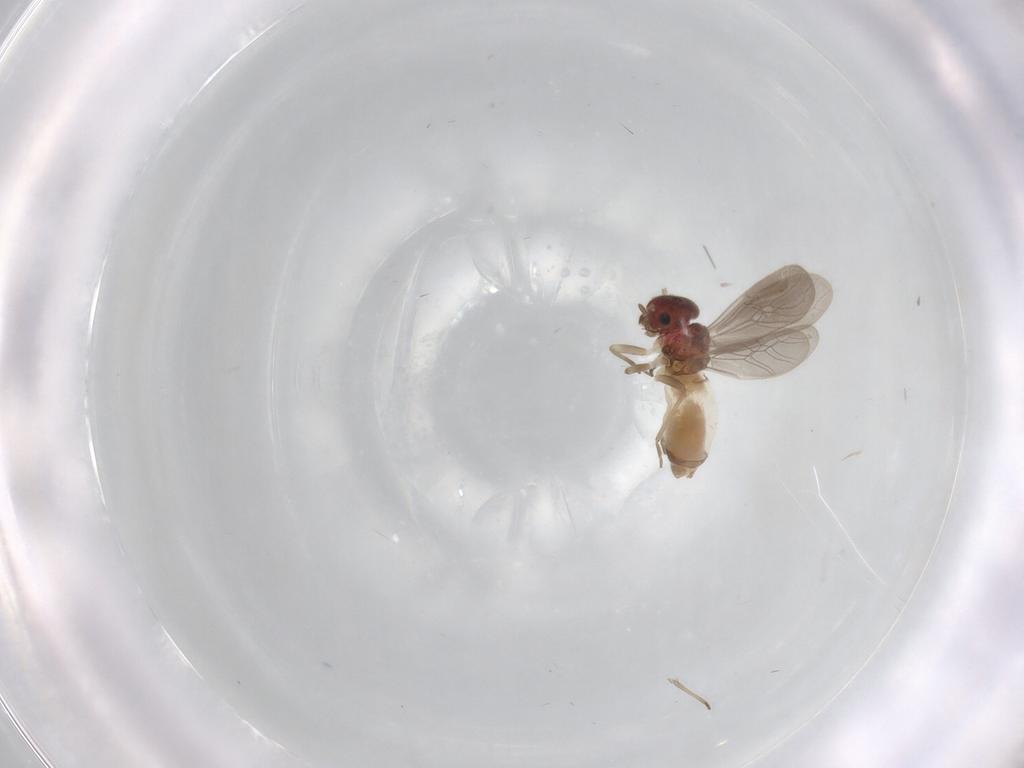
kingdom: Animalia
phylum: Arthropoda
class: Insecta
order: Psocodea
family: Archipsocidae
